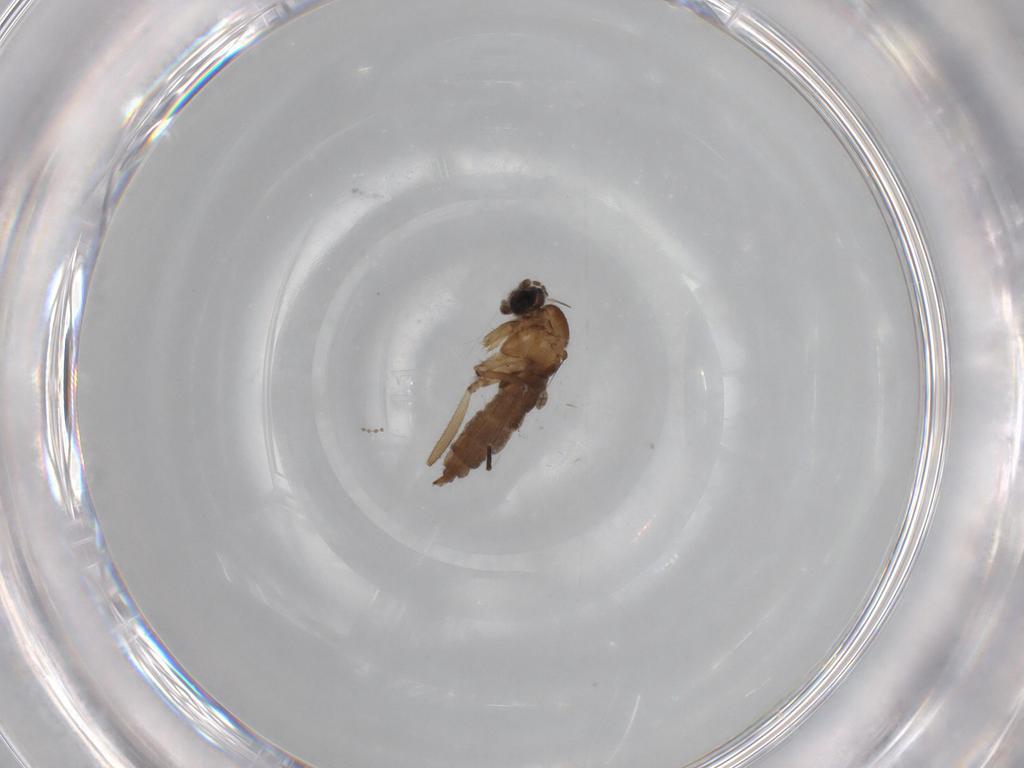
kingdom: Animalia
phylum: Arthropoda
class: Insecta
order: Diptera
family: Cecidomyiidae
